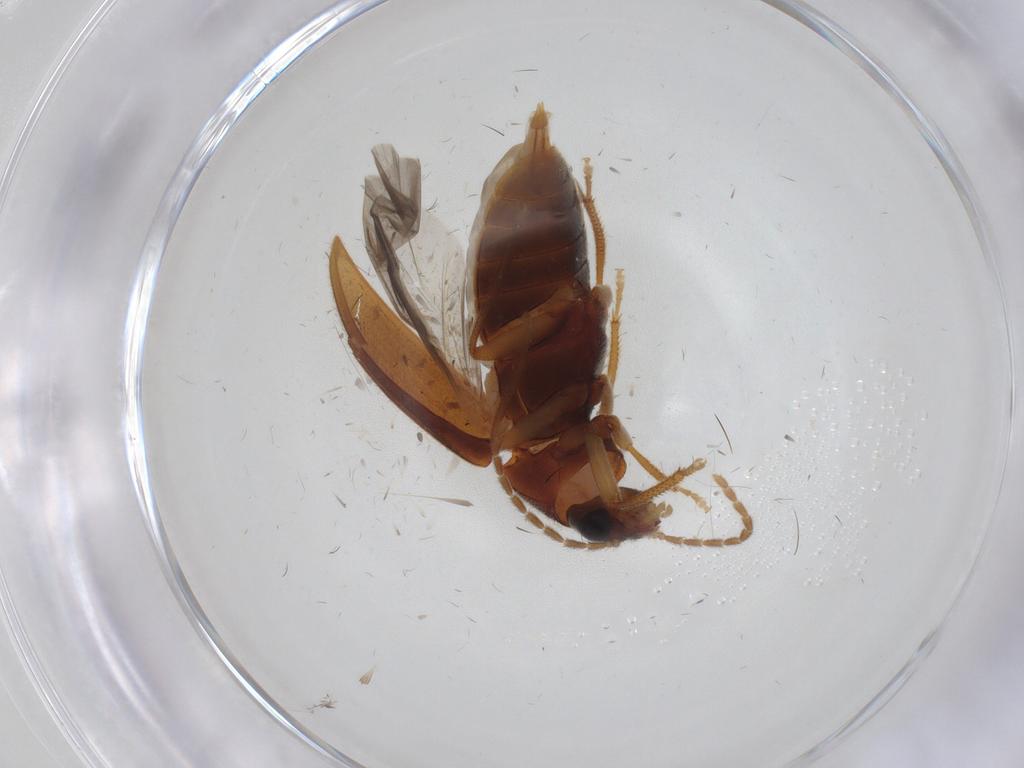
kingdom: Animalia
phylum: Arthropoda
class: Insecta
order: Coleoptera
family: Ptilodactylidae
